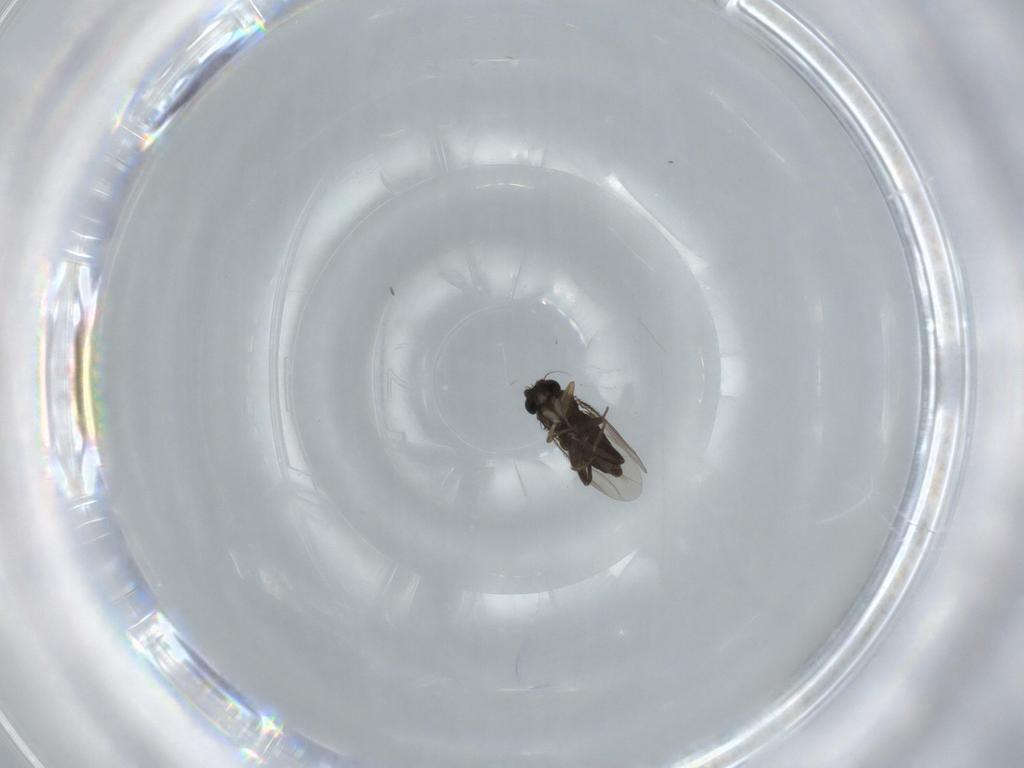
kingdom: Animalia
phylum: Arthropoda
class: Insecta
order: Diptera
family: Phoridae
